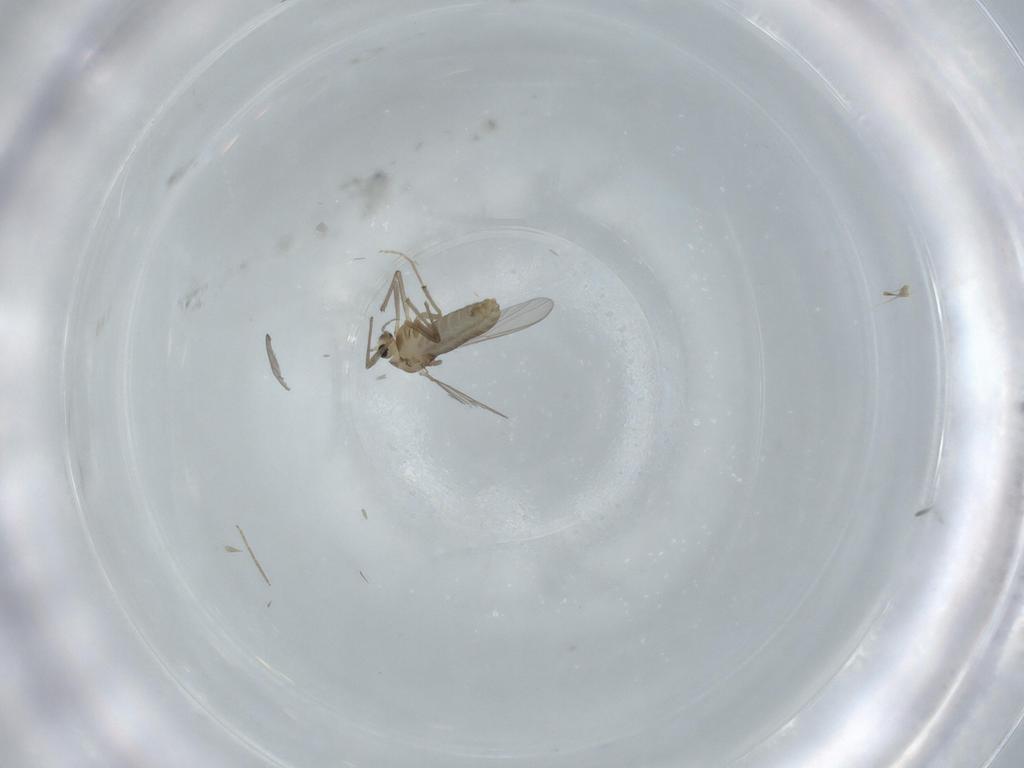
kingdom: Animalia
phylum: Arthropoda
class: Insecta
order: Diptera
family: Chironomidae
